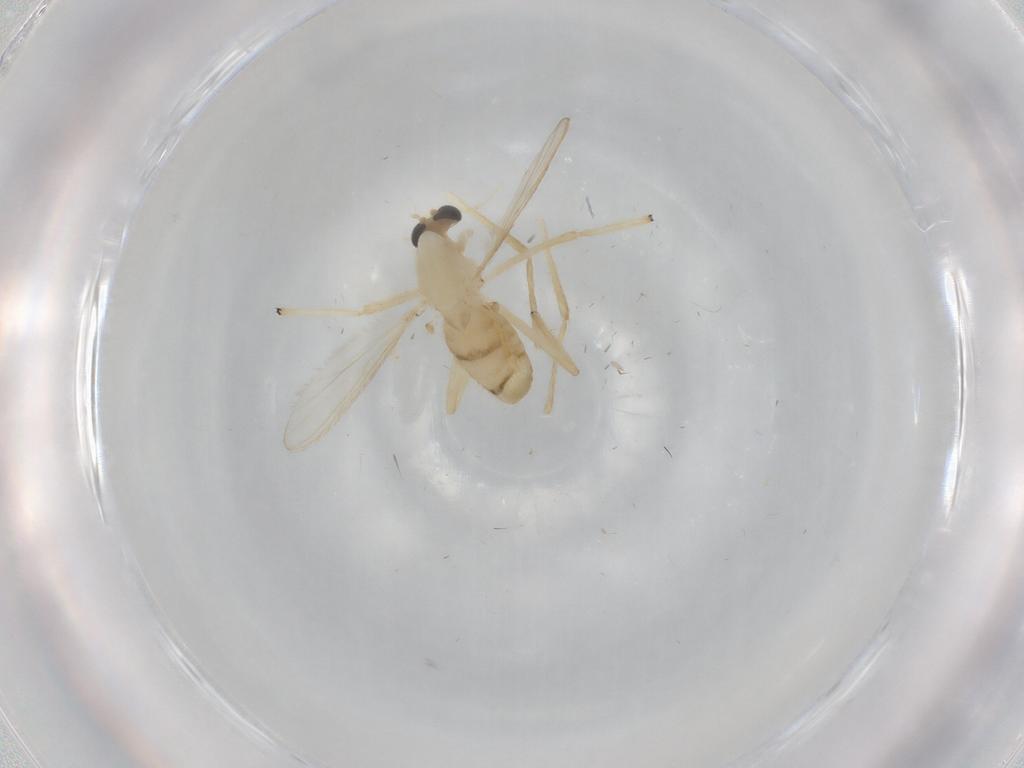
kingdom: Animalia
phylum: Arthropoda
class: Insecta
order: Diptera
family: Chironomidae
